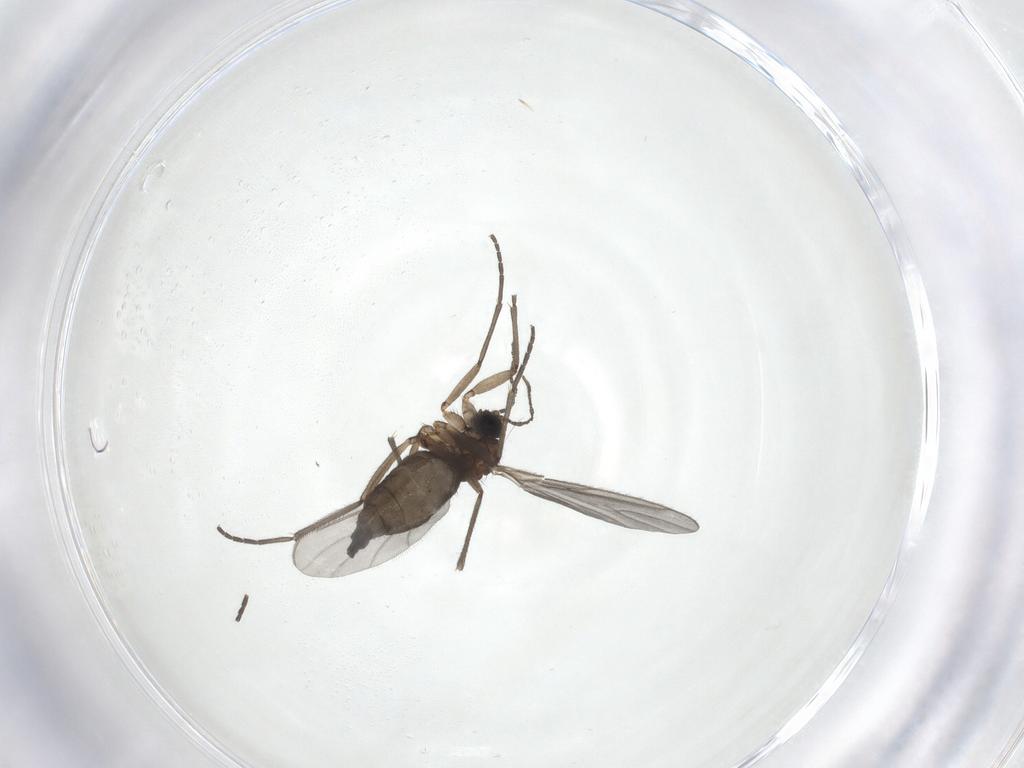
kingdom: Animalia
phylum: Arthropoda
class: Insecta
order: Diptera
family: Sciaridae
